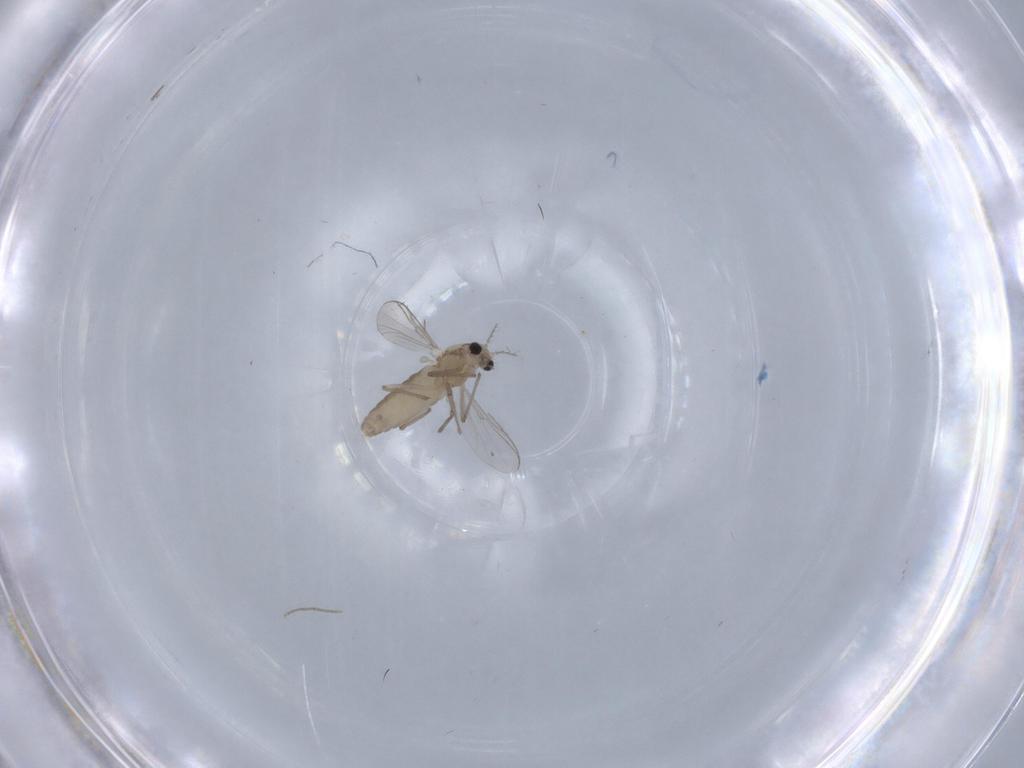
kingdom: Animalia
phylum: Arthropoda
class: Insecta
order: Diptera
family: Chironomidae
